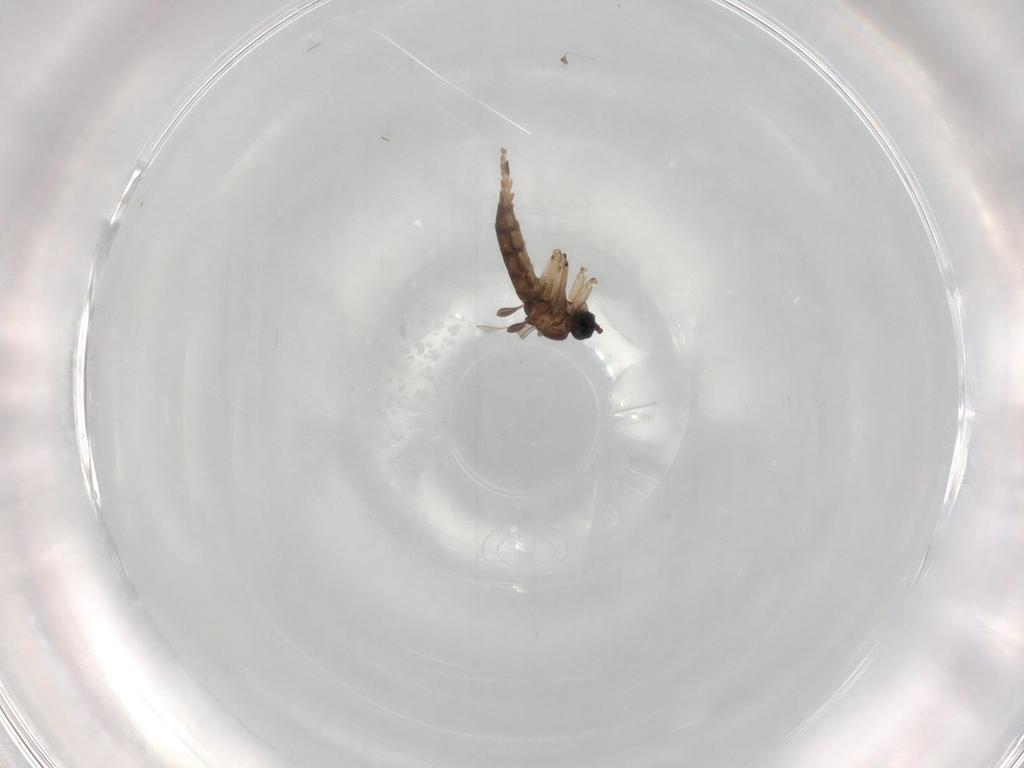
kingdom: Animalia
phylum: Arthropoda
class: Insecta
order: Diptera
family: Cecidomyiidae
